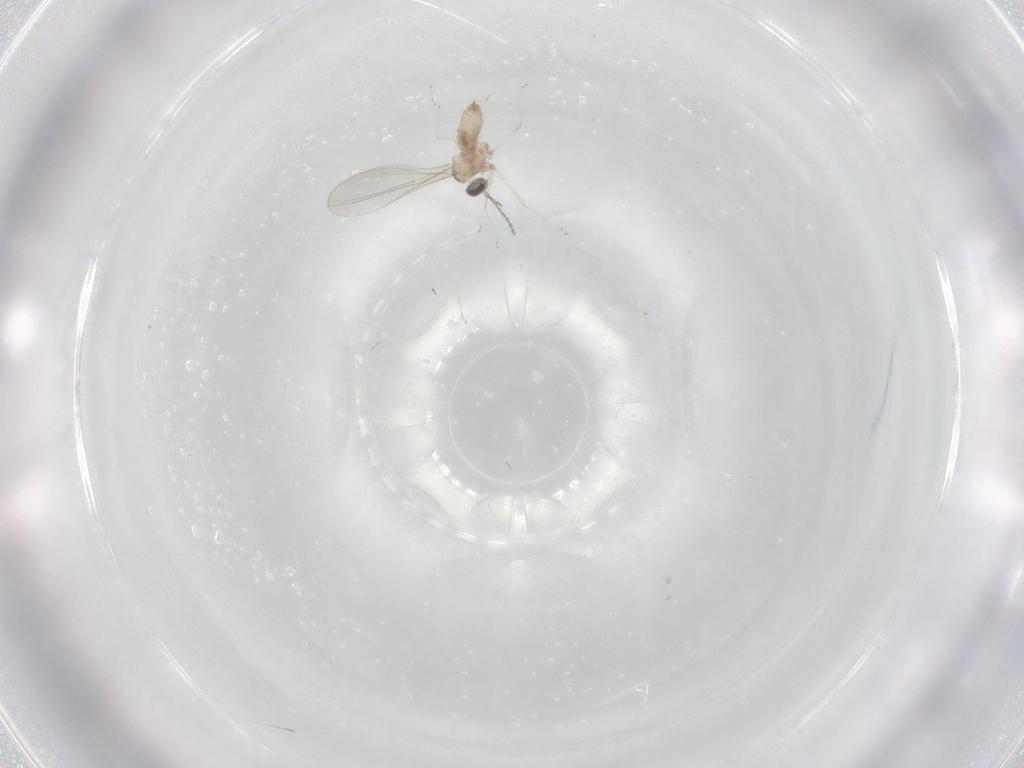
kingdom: Animalia
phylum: Arthropoda
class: Insecta
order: Diptera
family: Cecidomyiidae
